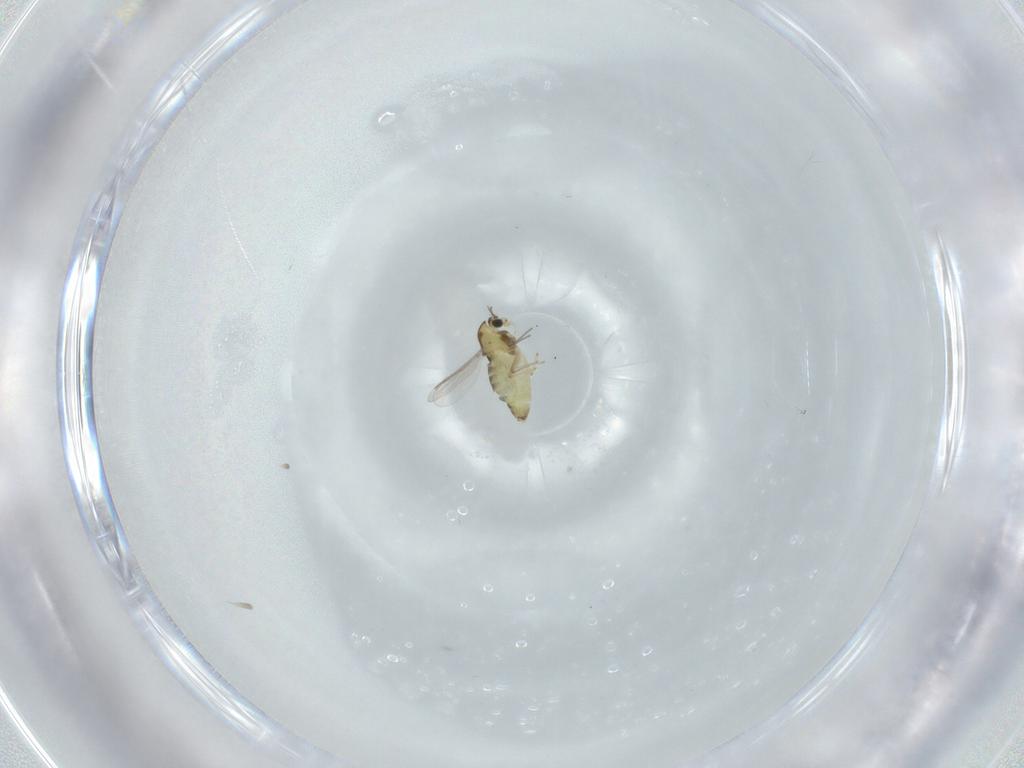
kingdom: Animalia
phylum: Arthropoda
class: Insecta
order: Diptera
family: Chironomidae
